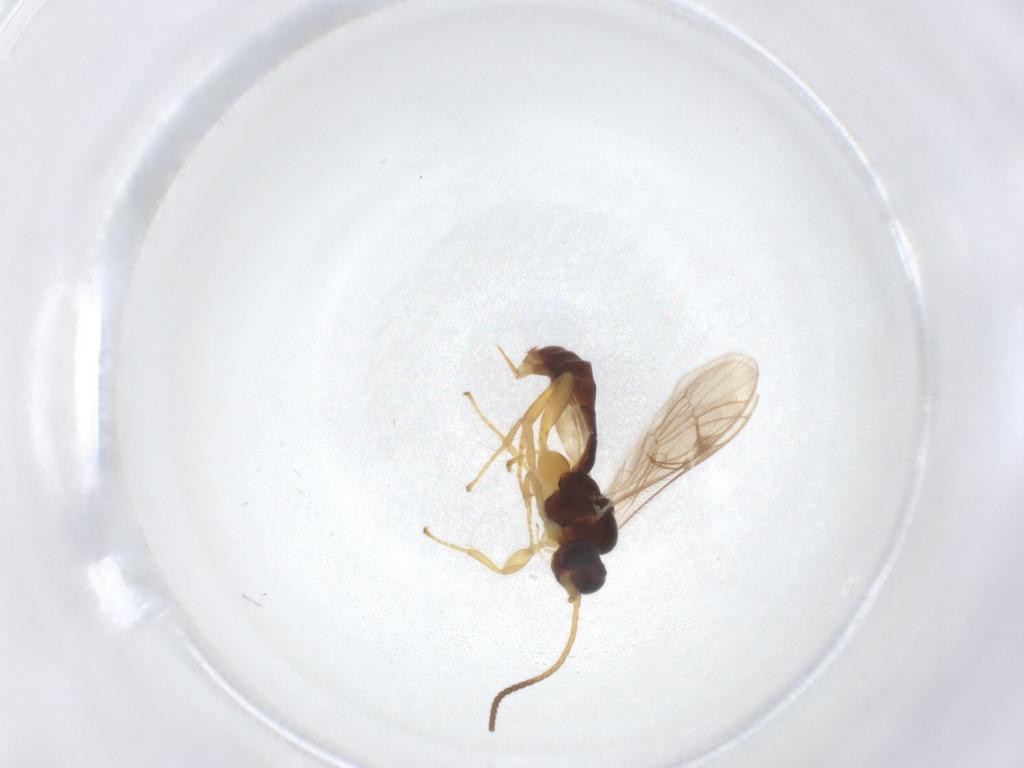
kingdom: Animalia
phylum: Arthropoda
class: Insecta
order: Hymenoptera
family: Ichneumonidae
